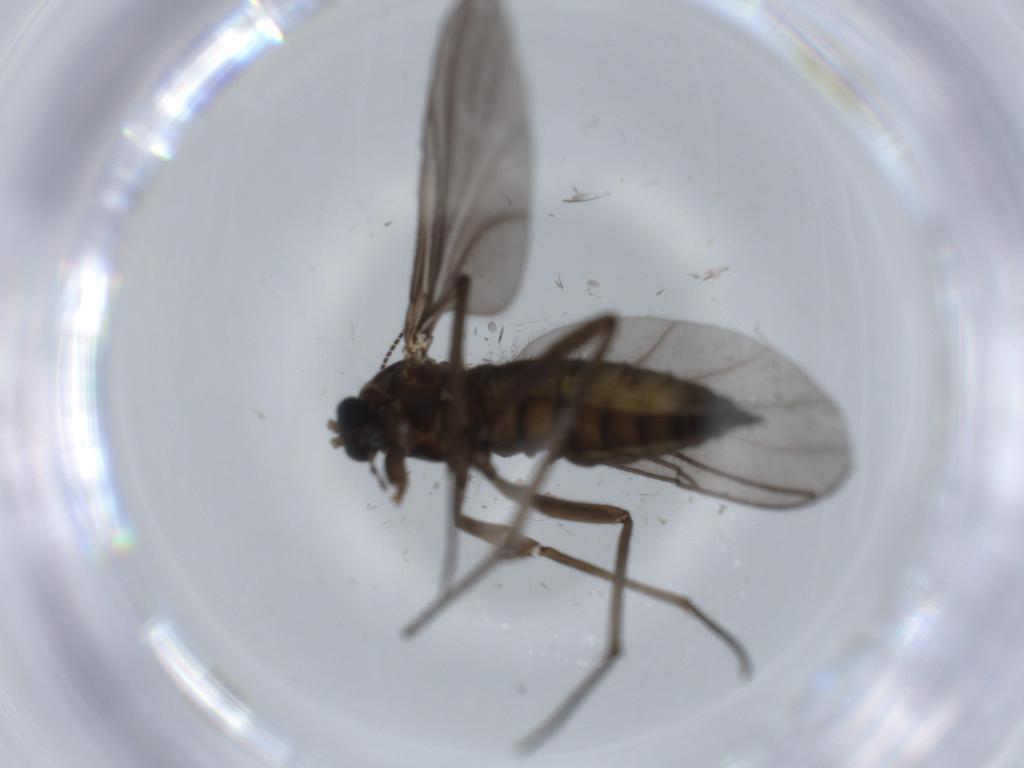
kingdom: Animalia
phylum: Arthropoda
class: Insecta
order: Diptera
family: Sciaridae
